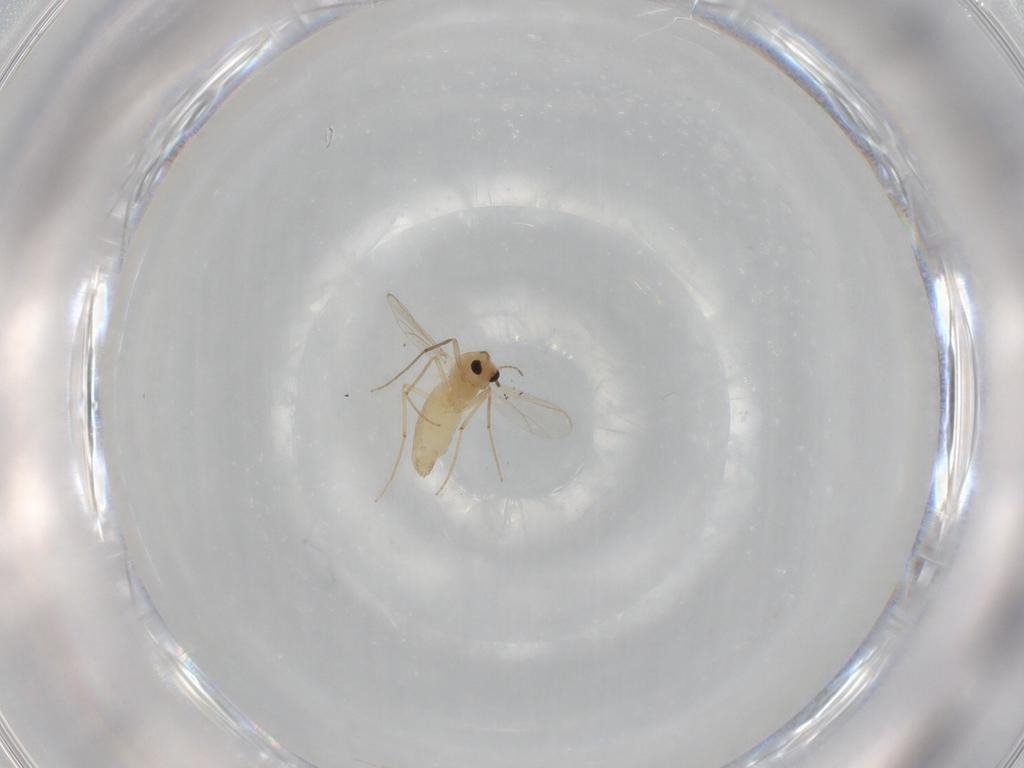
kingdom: Animalia
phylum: Arthropoda
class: Insecta
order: Diptera
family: Chironomidae
